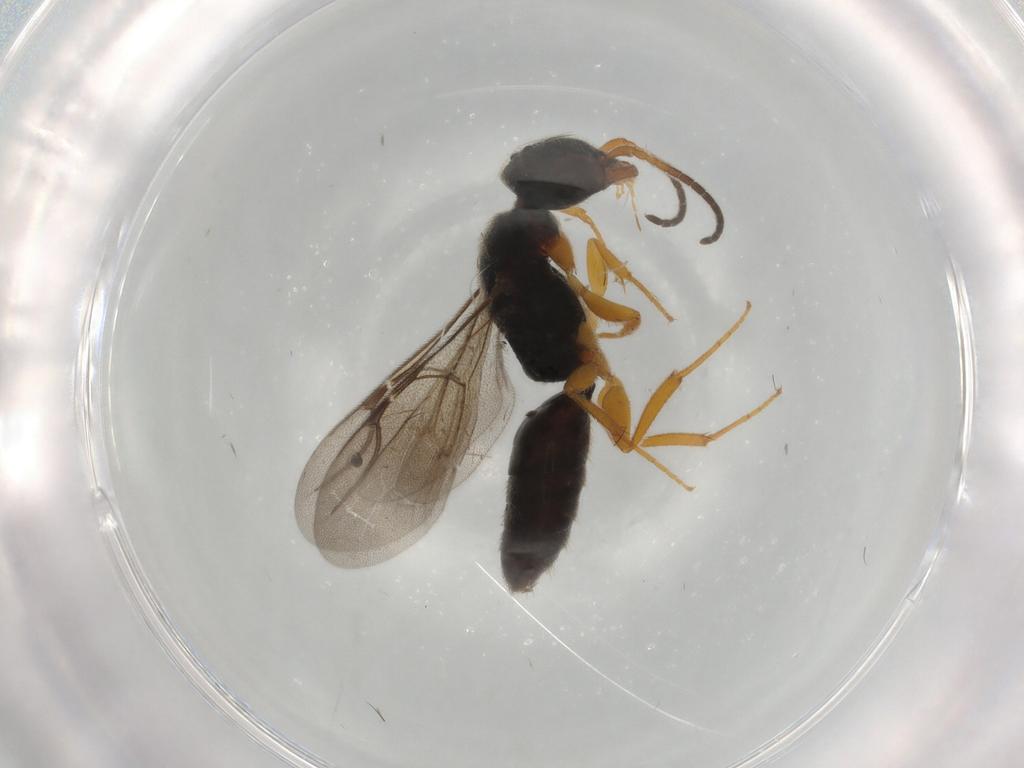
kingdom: Animalia
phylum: Arthropoda
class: Insecta
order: Hymenoptera
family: Bethylidae
